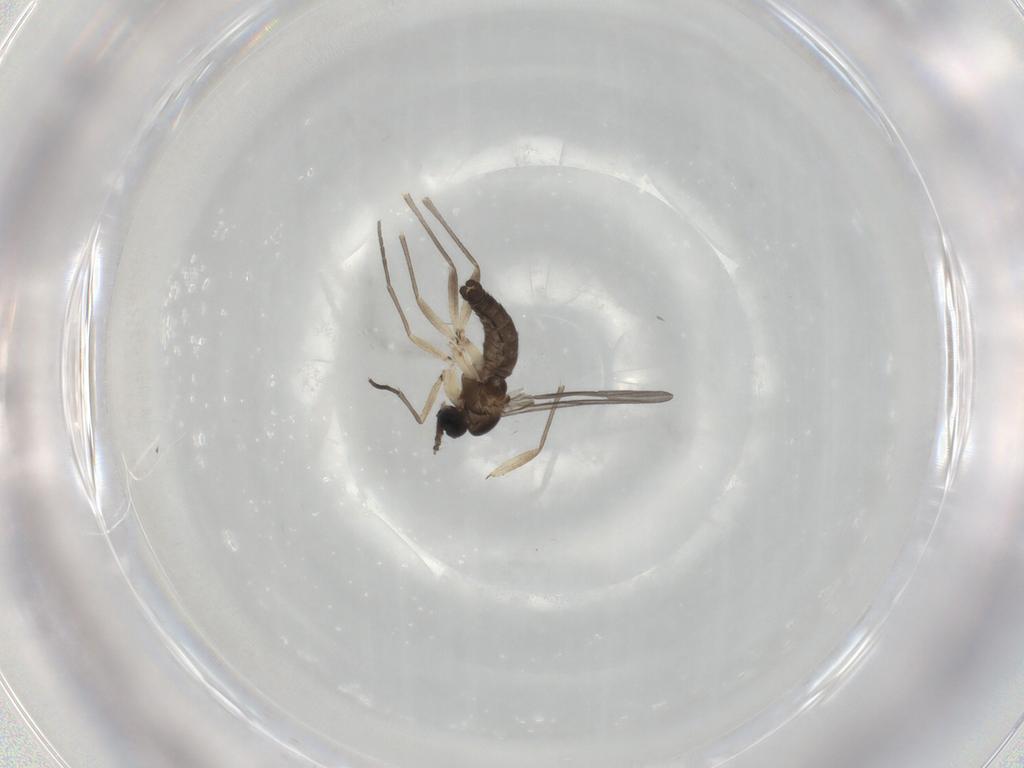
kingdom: Animalia
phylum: Arthropoda
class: Insecta
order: Diptera
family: Sciaridae
